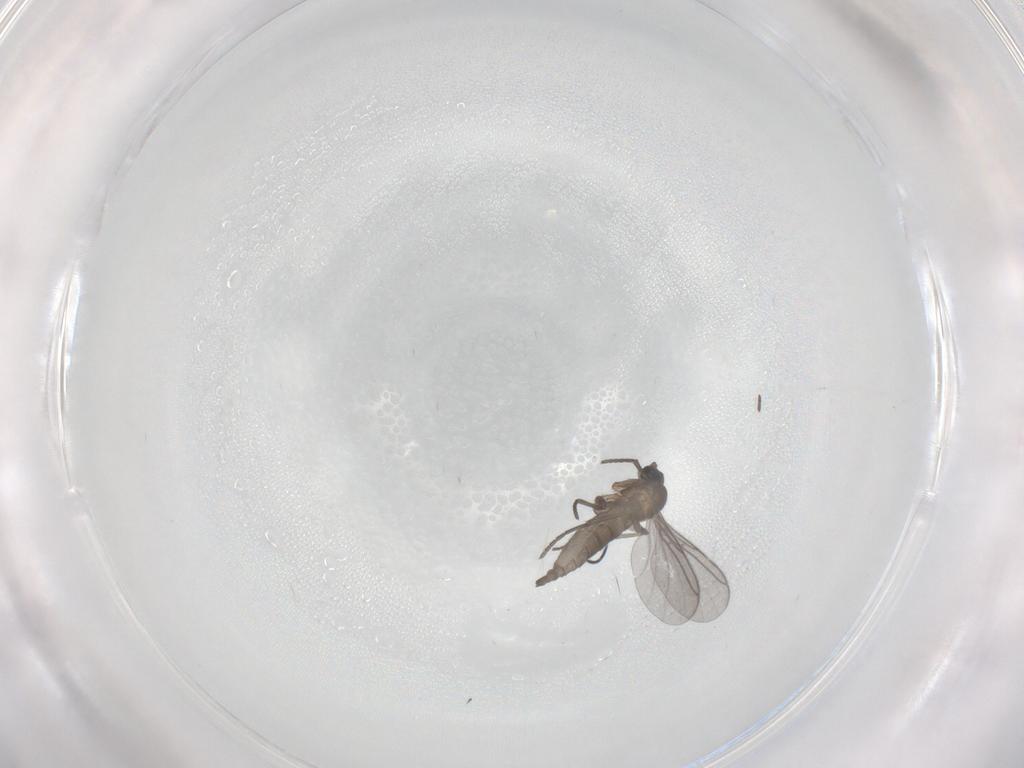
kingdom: Animalia
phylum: Arthropoda
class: Insecta
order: Diptera
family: Sciaridae
